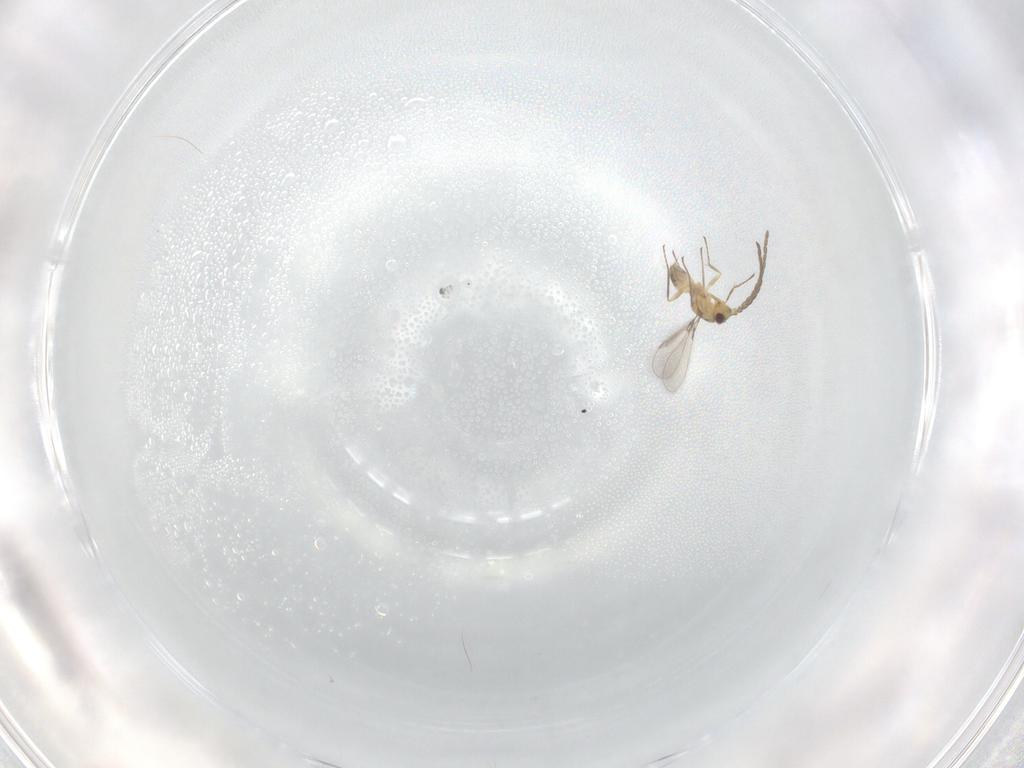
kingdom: Animalia
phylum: Arthropoda
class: Insecta
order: Hymenoptera
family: Mymaridae
